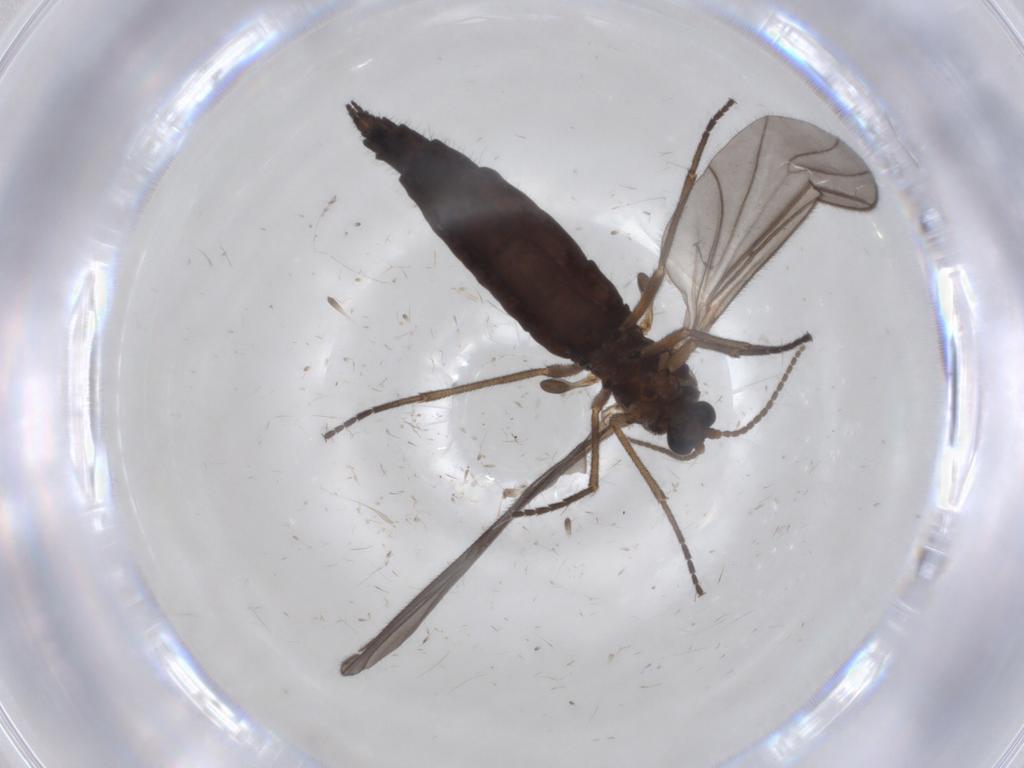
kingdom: Animalia
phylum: Arthropoda
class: Insecta
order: Diptera
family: Sciaridae
